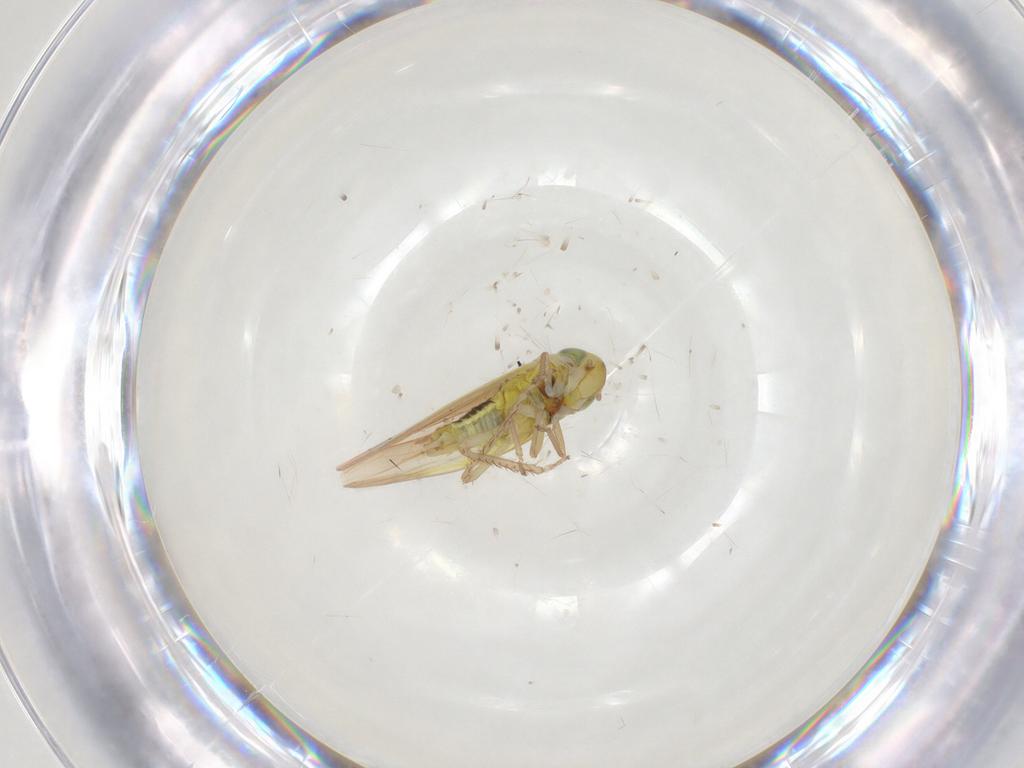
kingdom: Animalia
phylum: Arthropoda
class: Insecta
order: Hemiptera
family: Cicadellidae
